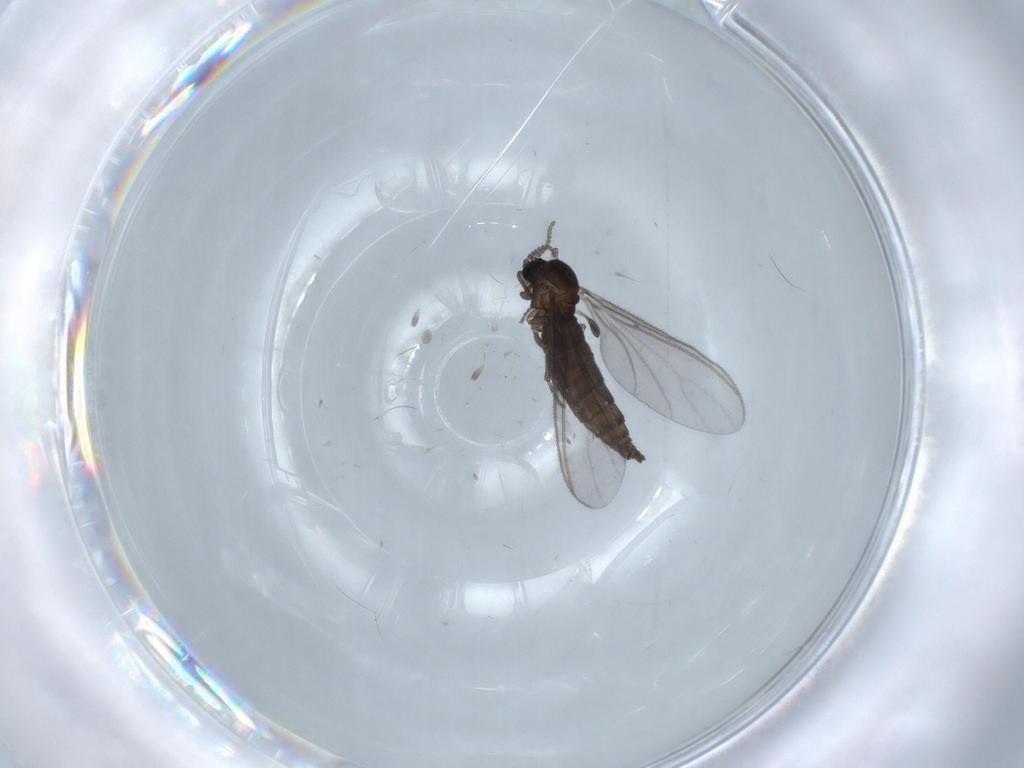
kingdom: Animalia
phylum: Arthropoda
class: Insecta
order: Diptera
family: Sciaridae
